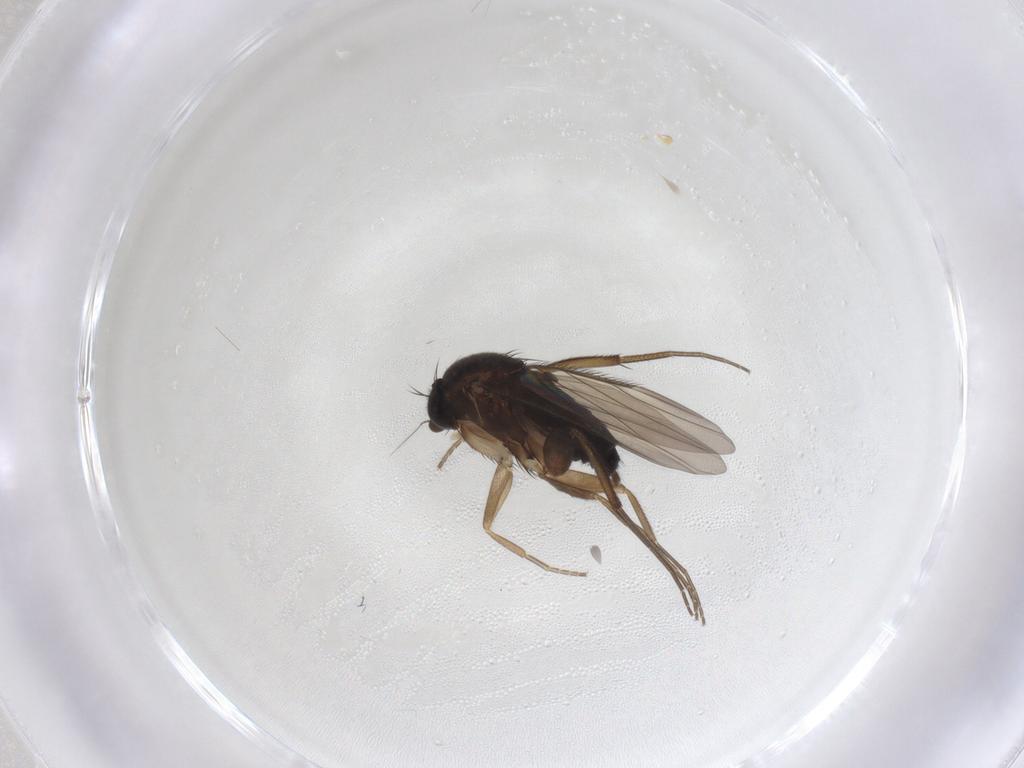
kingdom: Animalia
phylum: Arthropoda
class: Insecta
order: Diptera
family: Phoridae
